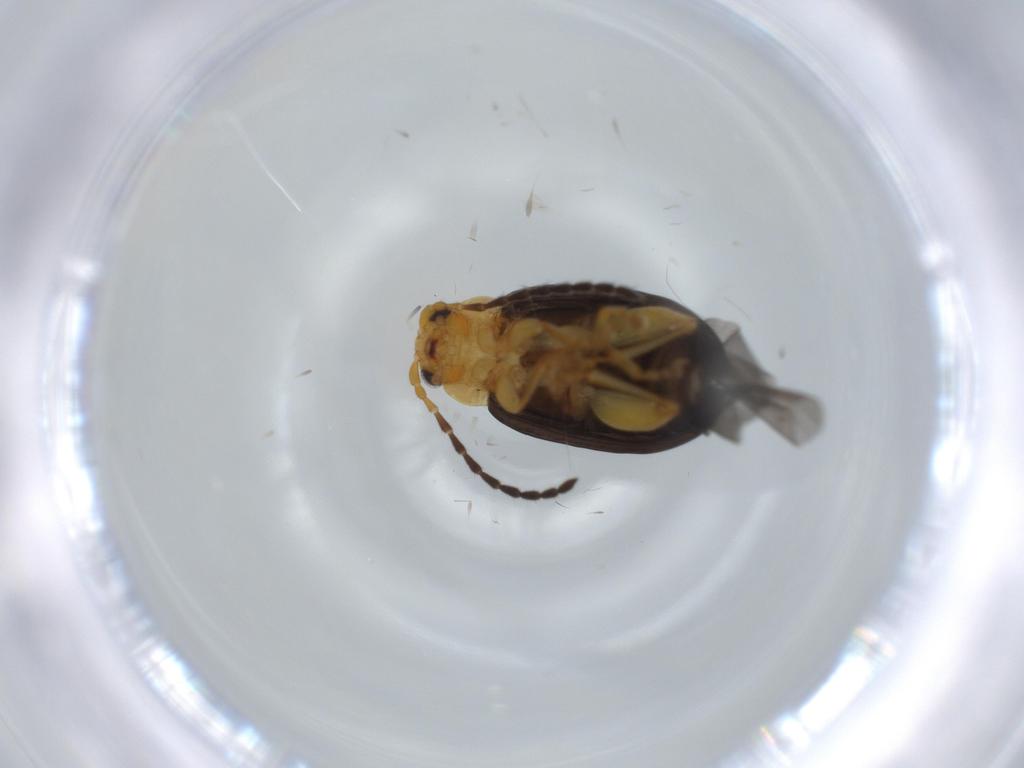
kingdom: Animalia
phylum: Arthropoda
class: Insecta
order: Coleoptera
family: Chrysomelidae
